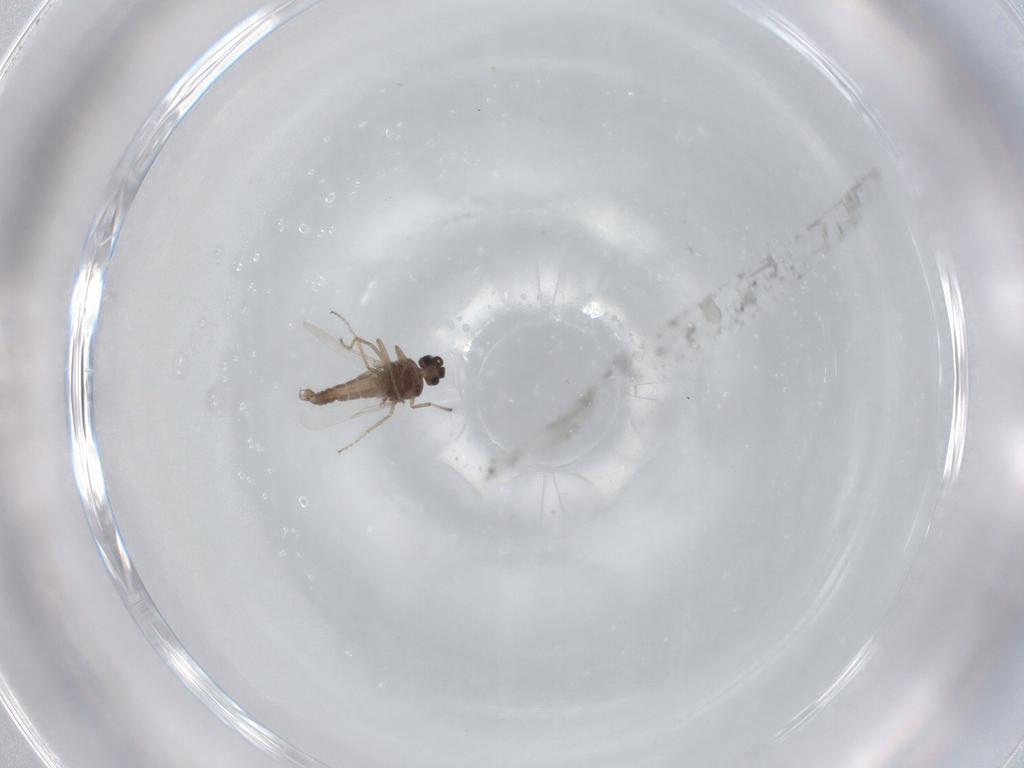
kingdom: Animalia
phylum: Arthropoda
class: Insecta
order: Diptera
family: Ceratopogonidae
